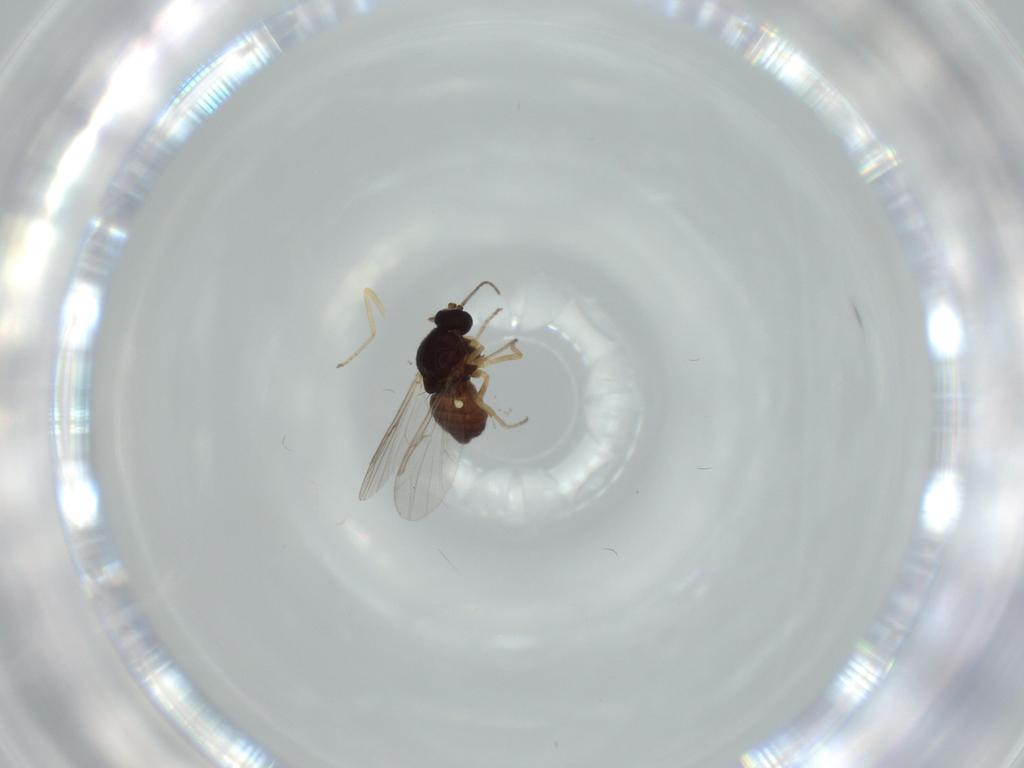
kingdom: Animalia
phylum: Arthropoda
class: Insecta
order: Diptera
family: Ceratopogonidae
